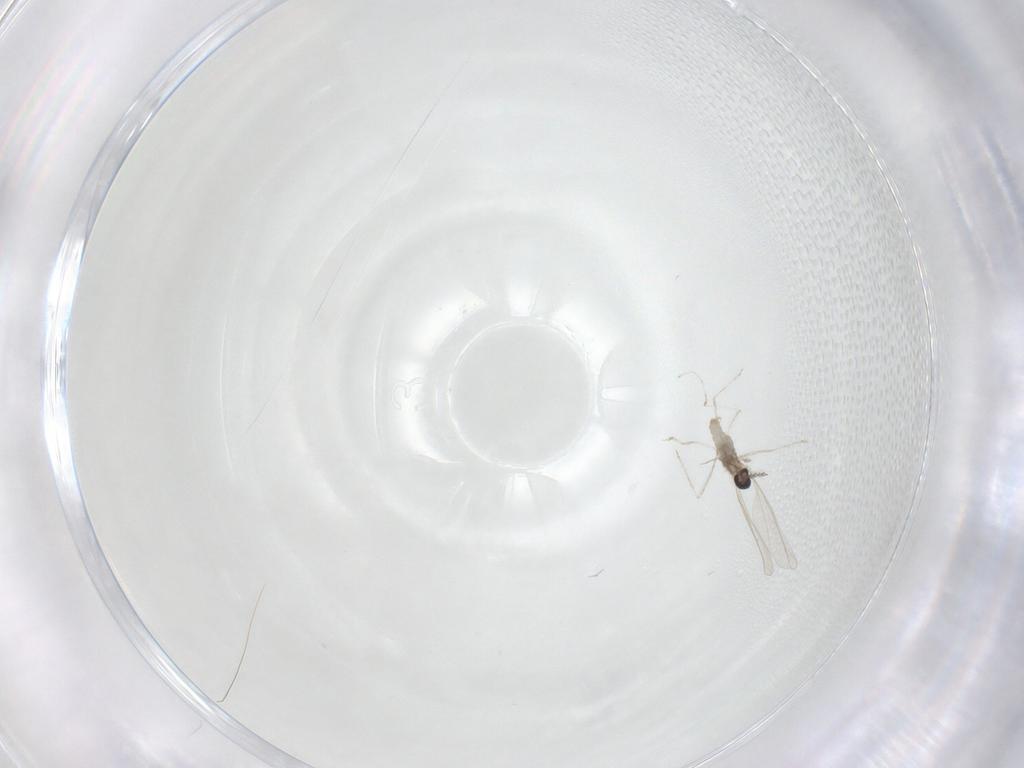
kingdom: Animalia
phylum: Arthropoda
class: Insecta
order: Diptera
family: Cecidomyiidae
